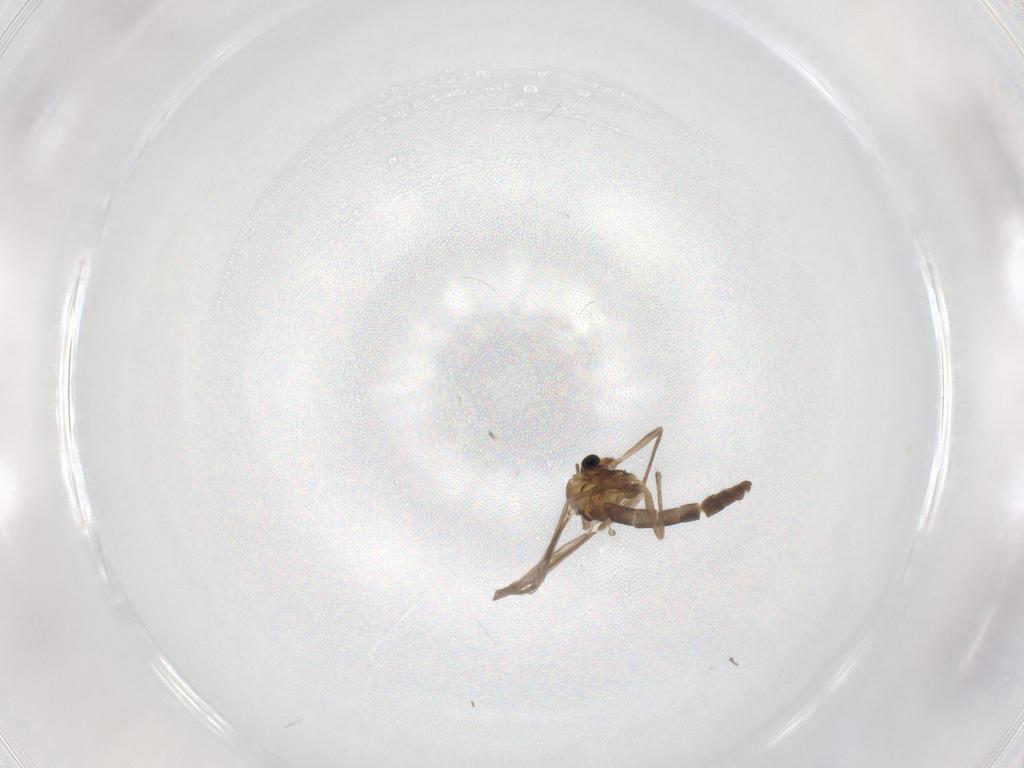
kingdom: Animalia
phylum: Arthropoda
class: Insecta
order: Diptera
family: Chironomidae
